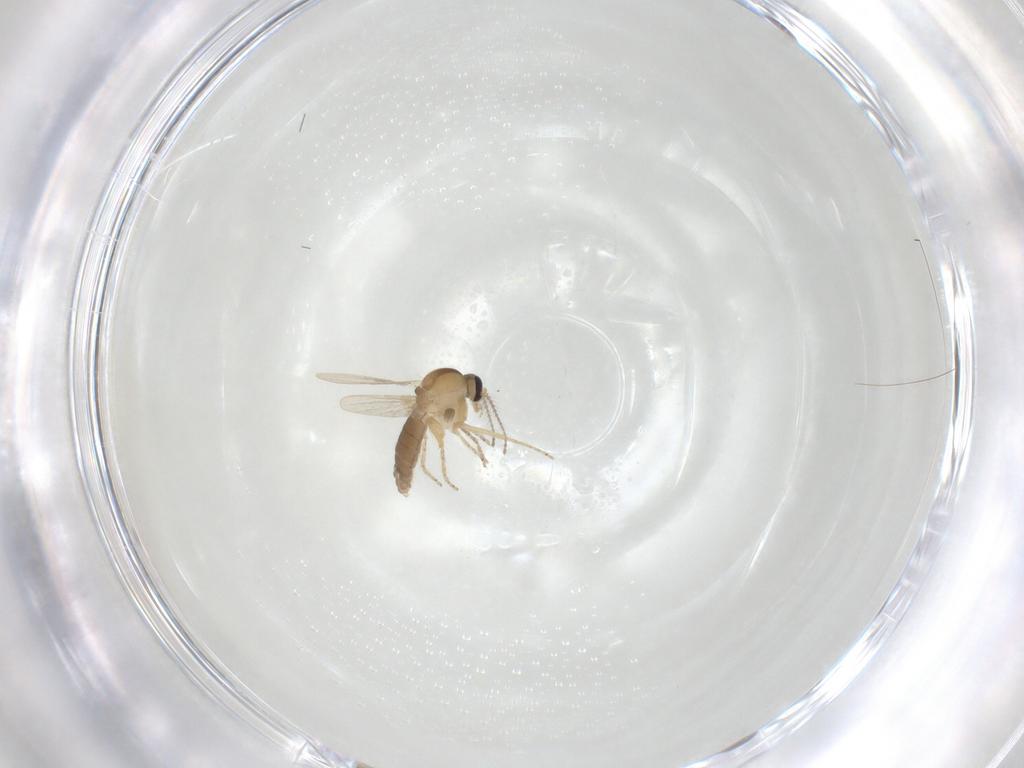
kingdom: Animalia
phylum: Arthropoda
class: Insecta
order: Diptera
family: Ceratopogonidae
